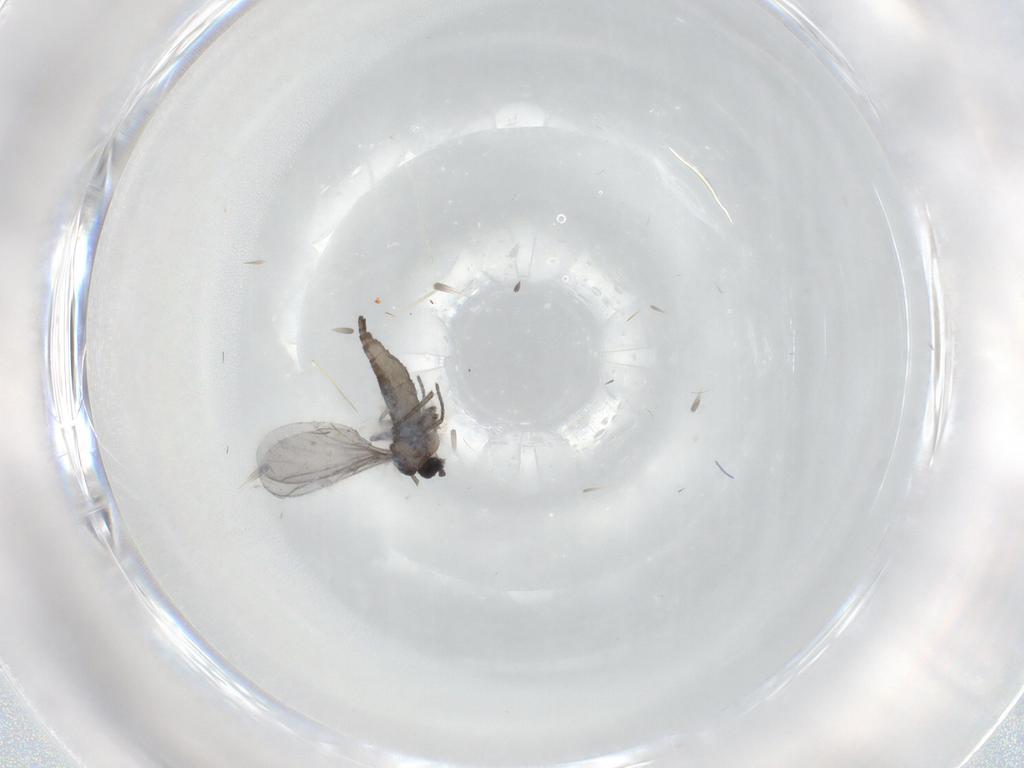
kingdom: Animalia
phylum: Arthropoda
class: Insecta
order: Diptera
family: Sciaridae
